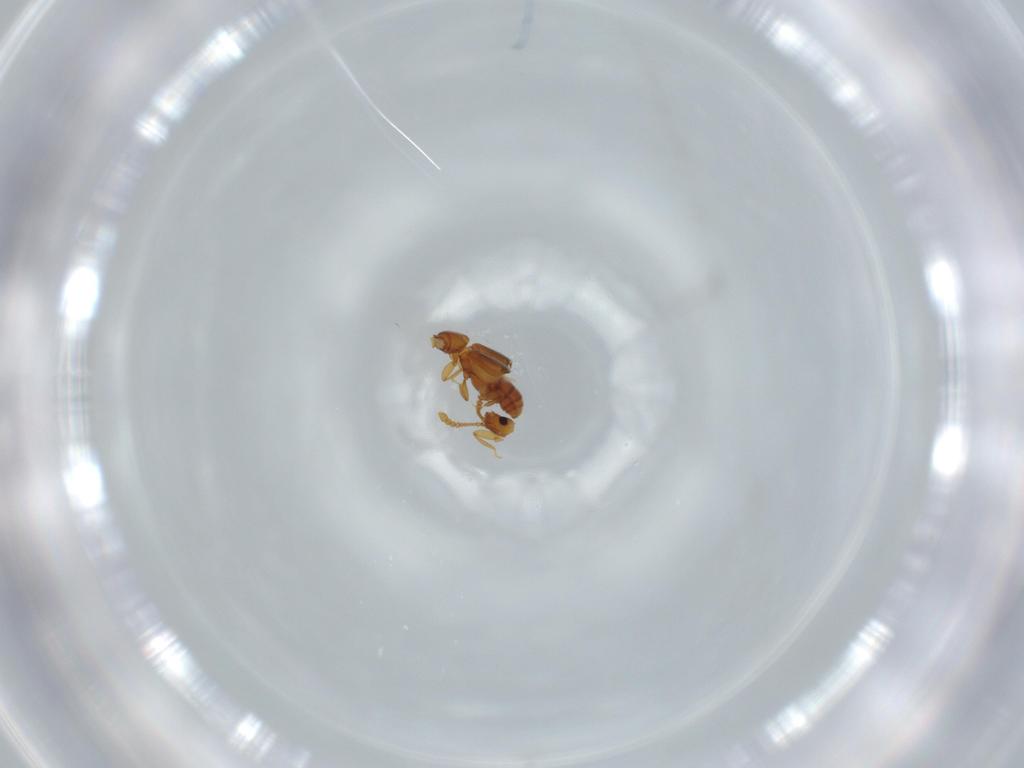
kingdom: Animalia
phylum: Arthropoda
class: Insecta
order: Coleoptera
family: Staphylinidae
